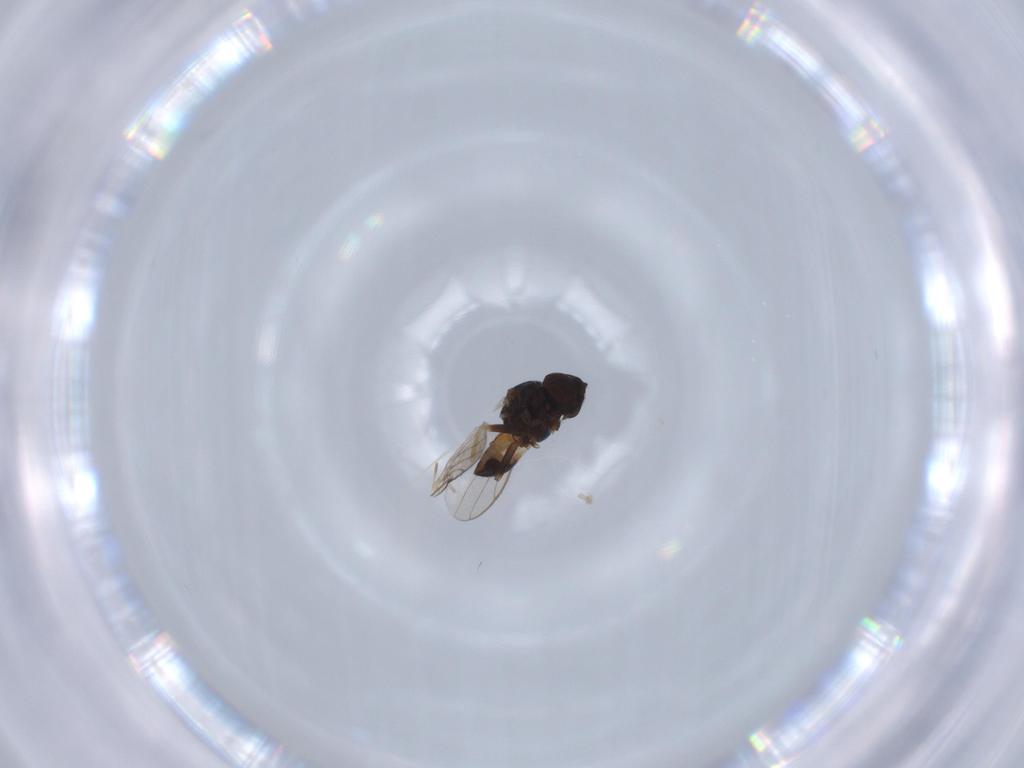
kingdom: Animalia
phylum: Arthropoda
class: Insecta
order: Diptera
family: Chloropidae
